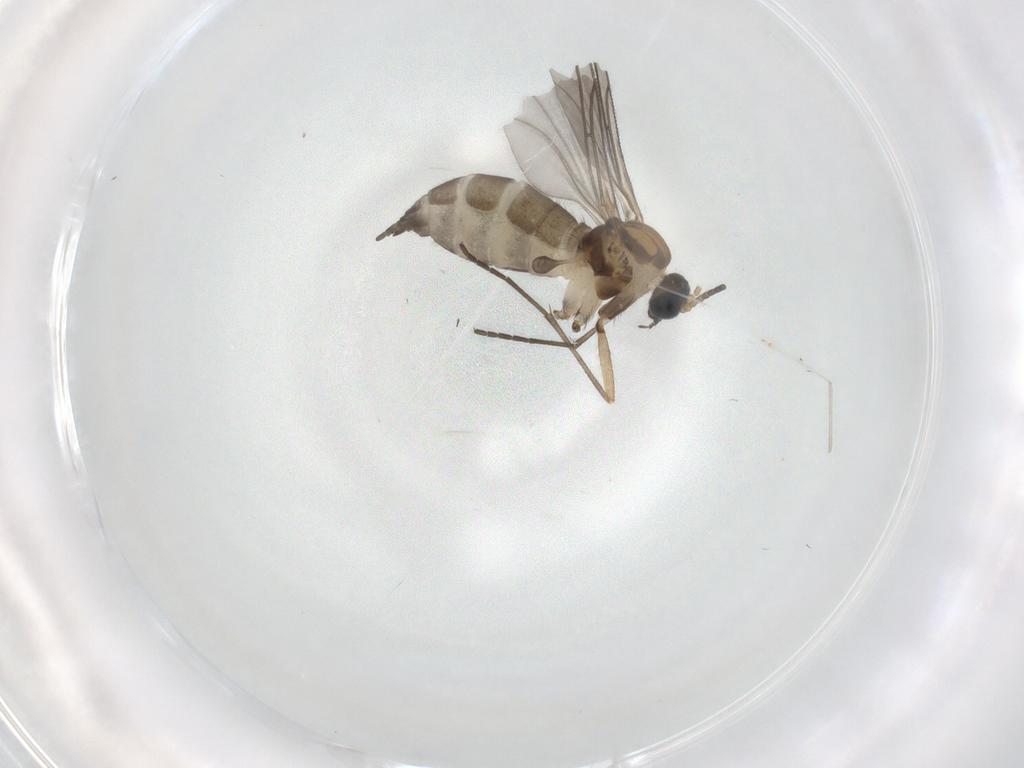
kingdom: Animalia
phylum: Arthropoda
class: Insecta
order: Diptera
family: Sciaridae
